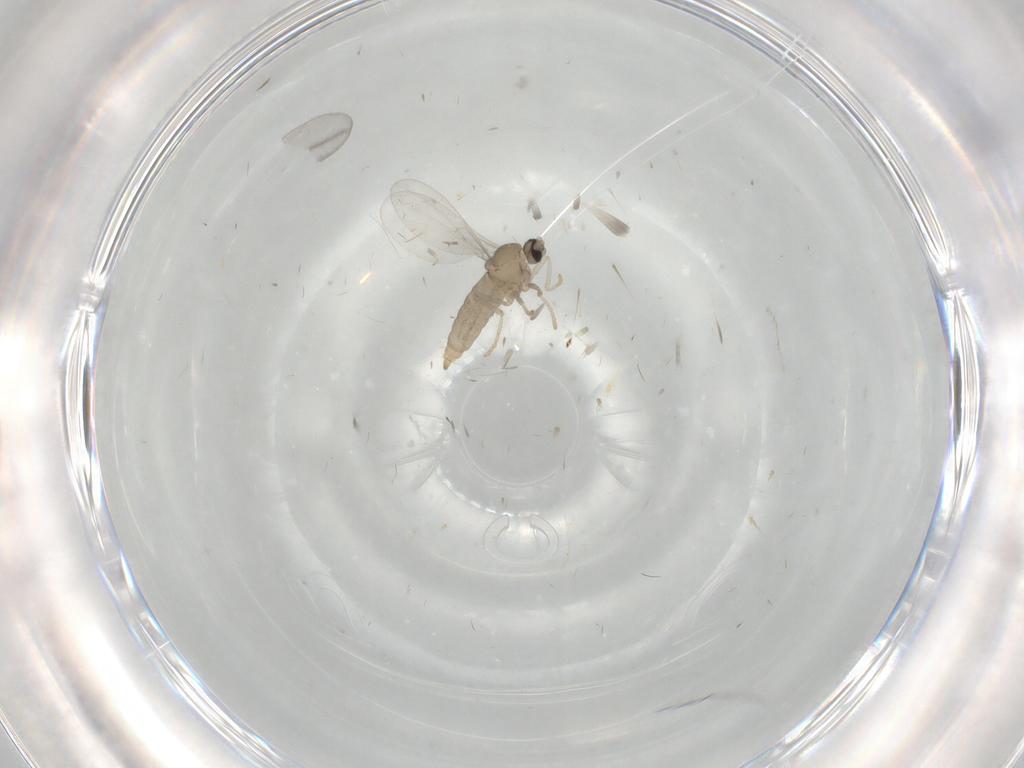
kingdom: Animalia
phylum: Arthropoda
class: Insecta
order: Diptera
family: Cecidomyiidae
